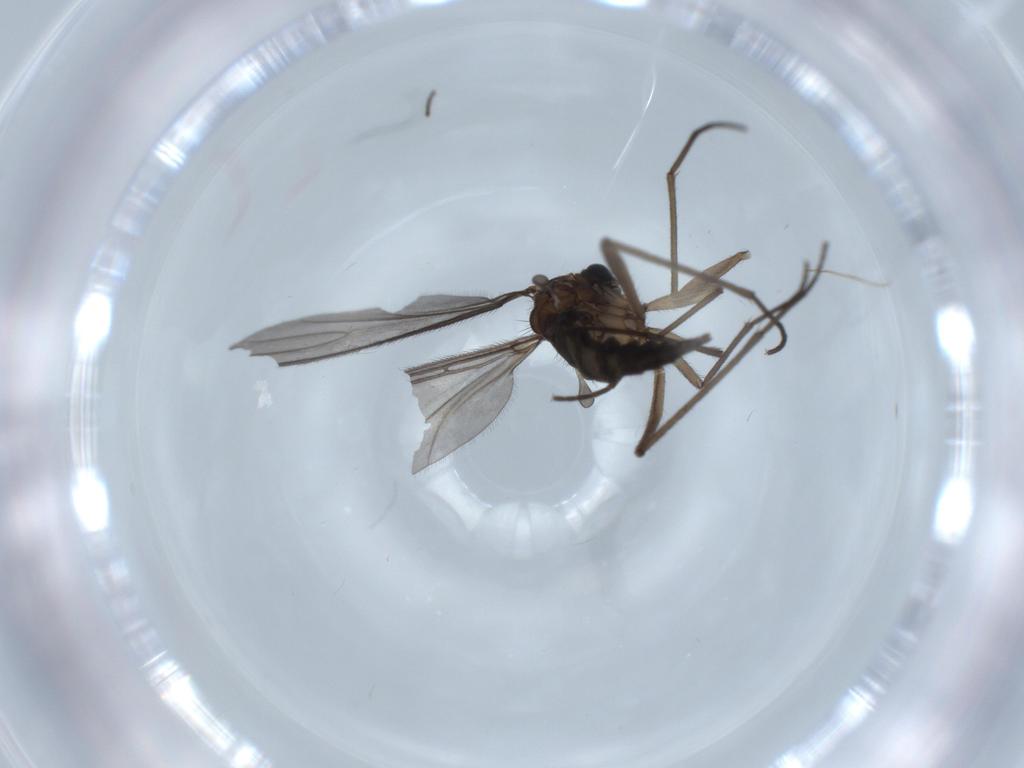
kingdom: Animalia
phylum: Arthropoda
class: Insecta
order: Diptera
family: Sciaridae
